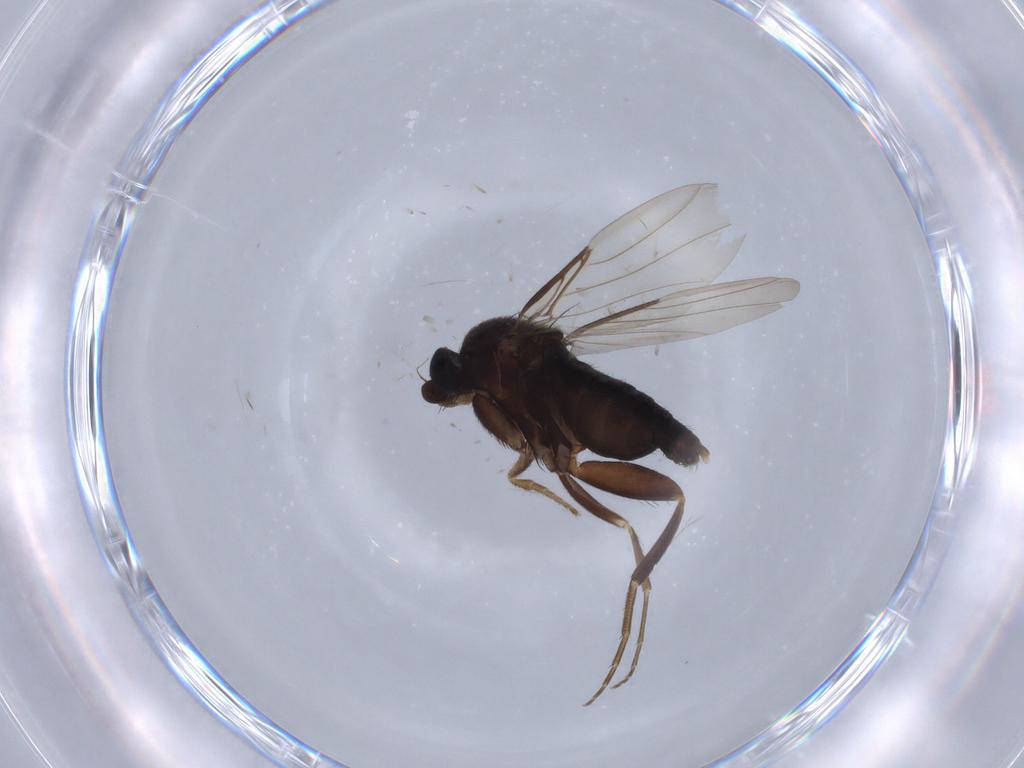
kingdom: Animalia
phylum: Arthropoda
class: Insecta
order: Diptera
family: Phoridae
